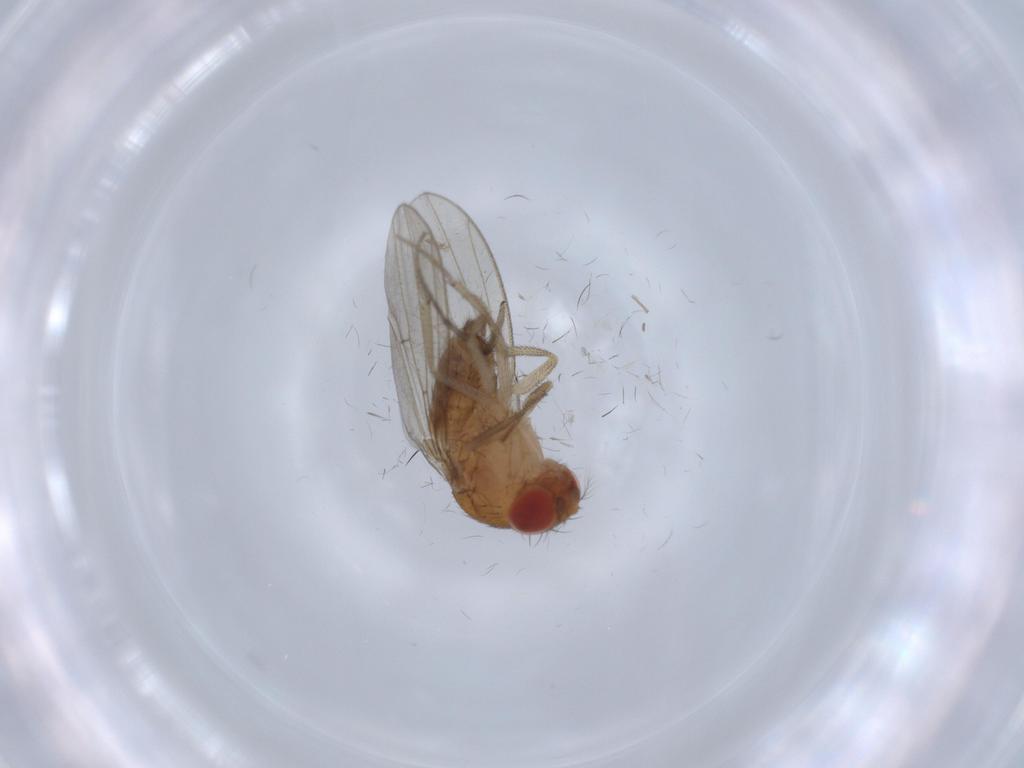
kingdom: Animalia
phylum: Arthropoda
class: Insecta
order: Diptera
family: Drosophilidae
